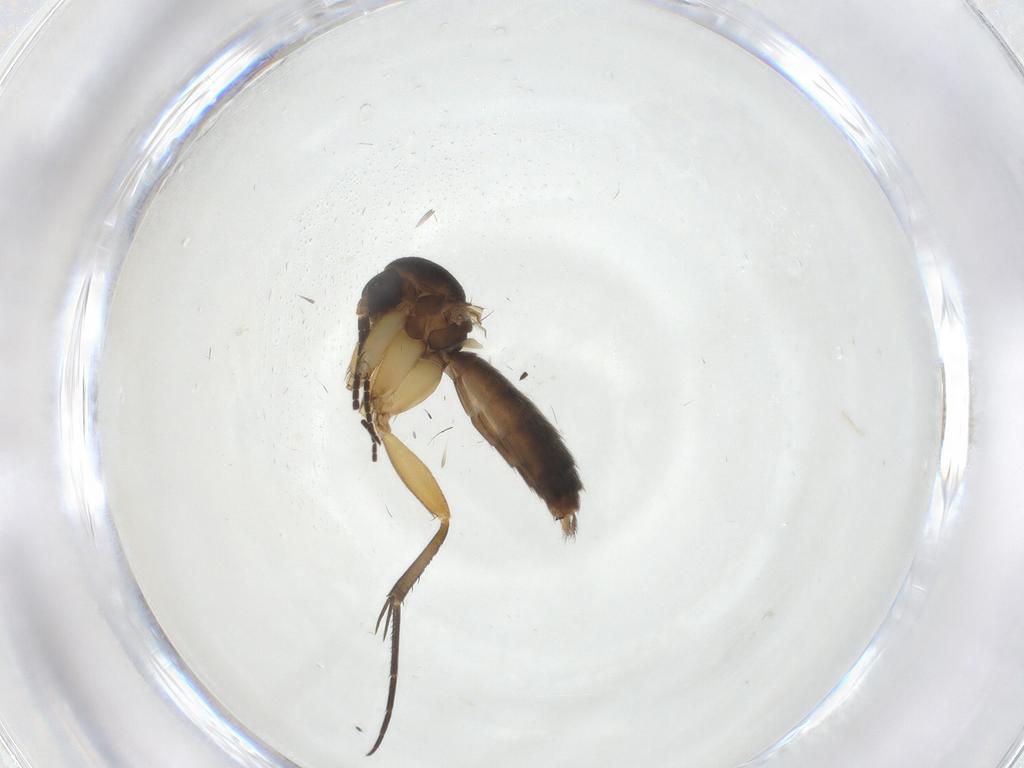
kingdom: Animalia
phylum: Arthropoda
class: Insecta
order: Diptera
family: Mycetophilidae
